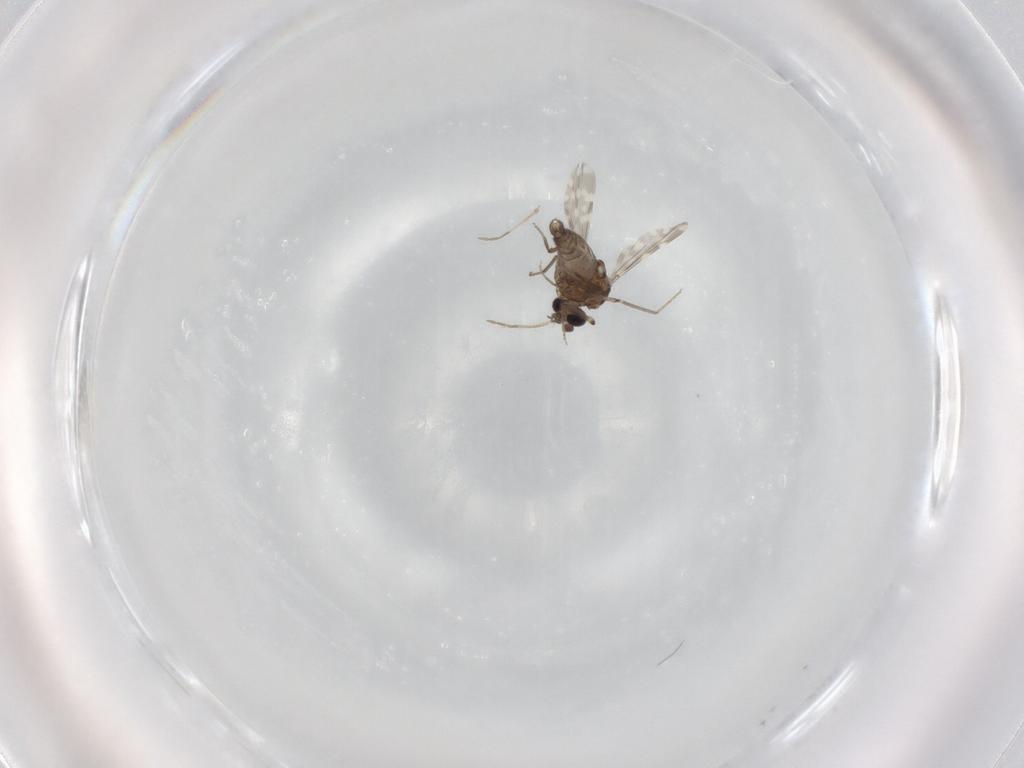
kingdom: Animalia
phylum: Arthropoda
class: Insecta
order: Diptera
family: Ceratopogonidae
